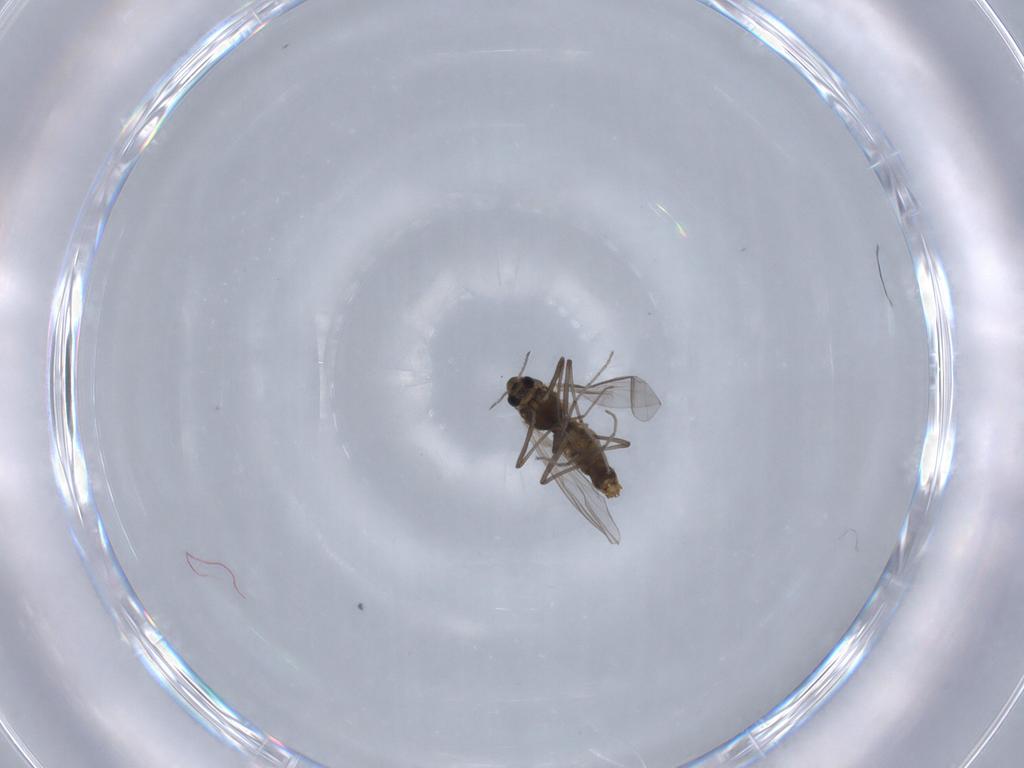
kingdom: Animalia
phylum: Arthropoda
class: Insecta
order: Diptera
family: Chironomidae
